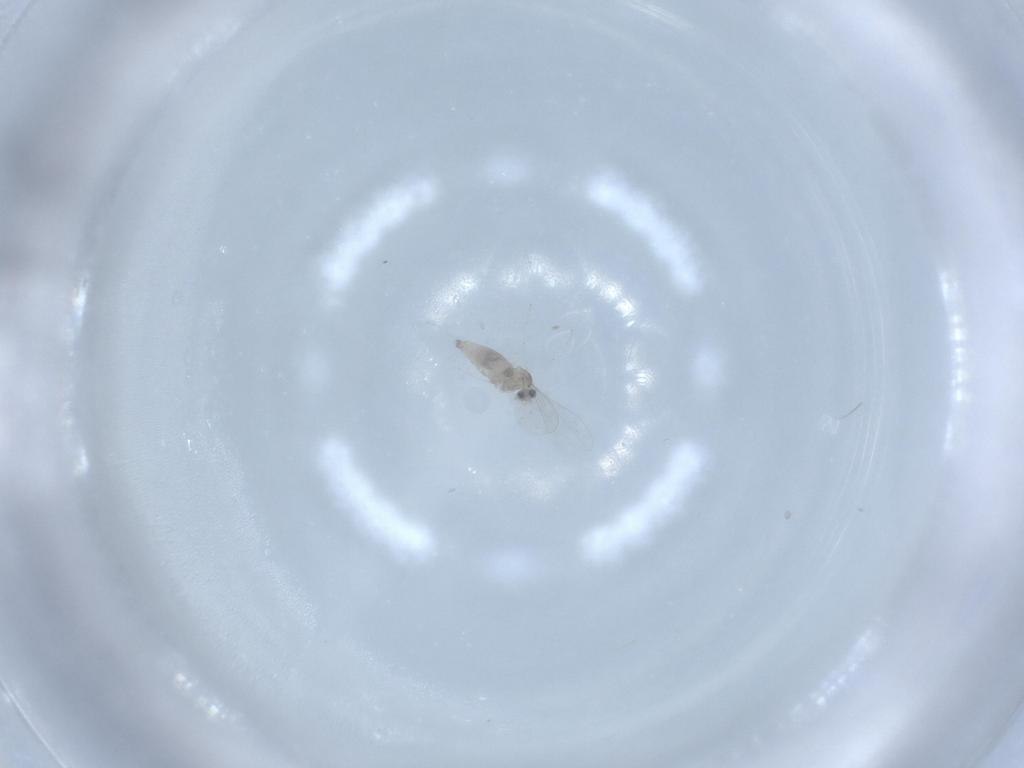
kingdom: Animalia
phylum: Arthropoda
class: Insecta
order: Diptera
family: Cecidomyiidae
